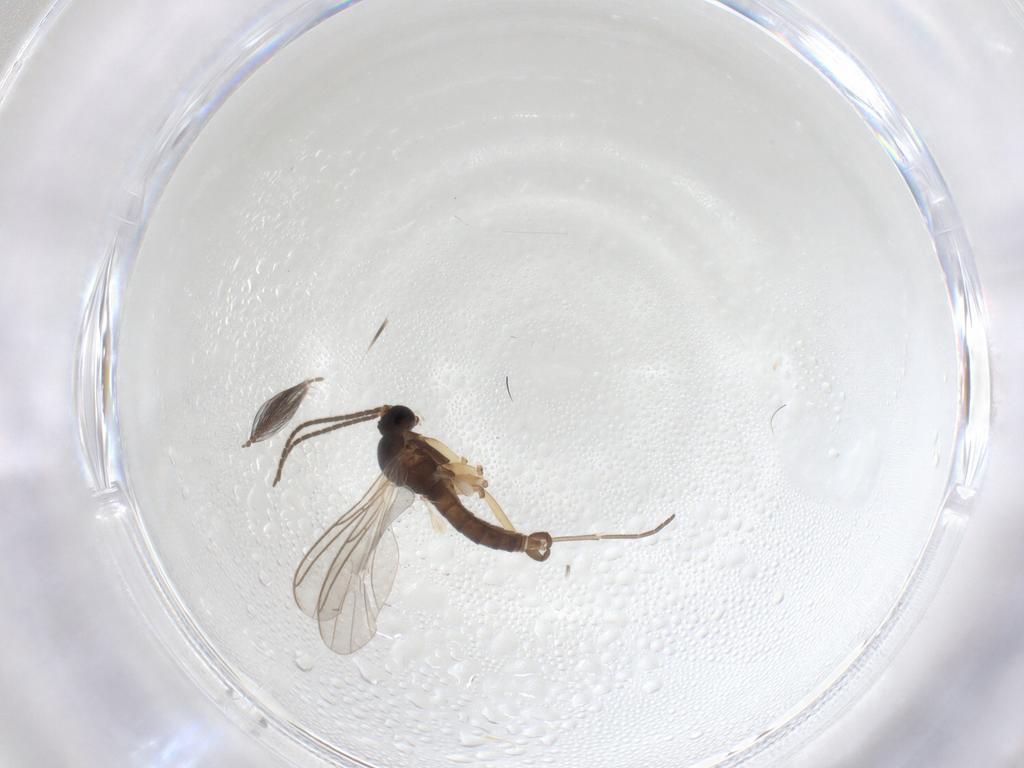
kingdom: Animalia
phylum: Arthropoda
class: Insecta
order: Diptera
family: Sciaridae
